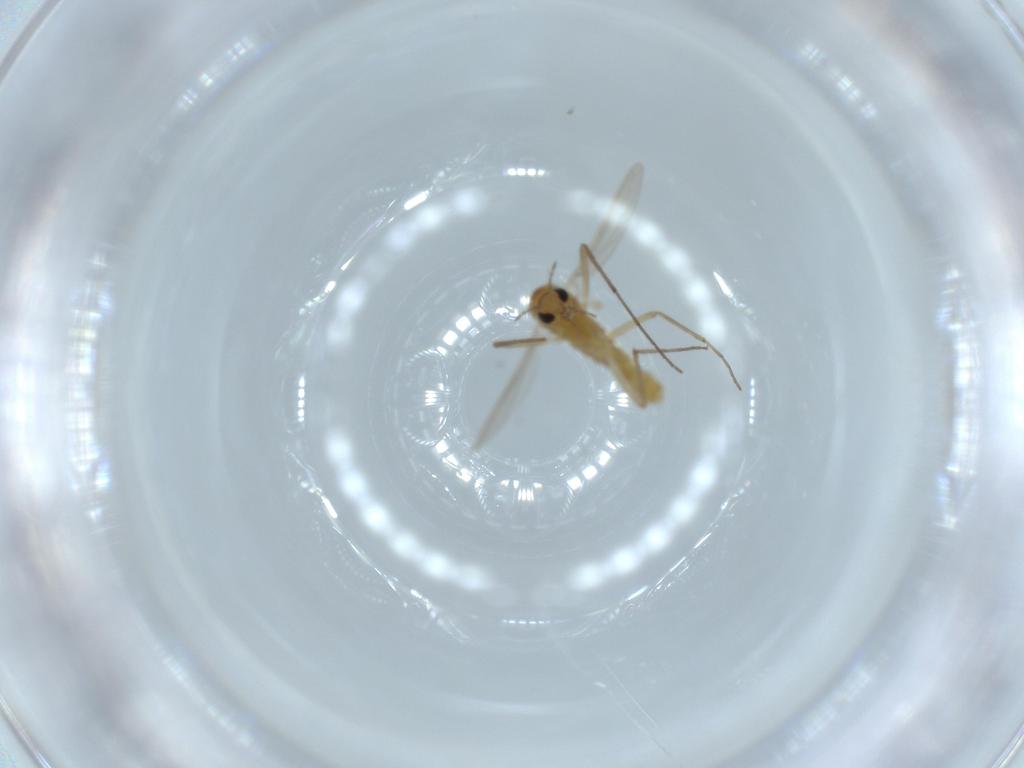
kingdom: Animalia
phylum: Arthropoda
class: Insecta
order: Diptera
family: Chironomidae
